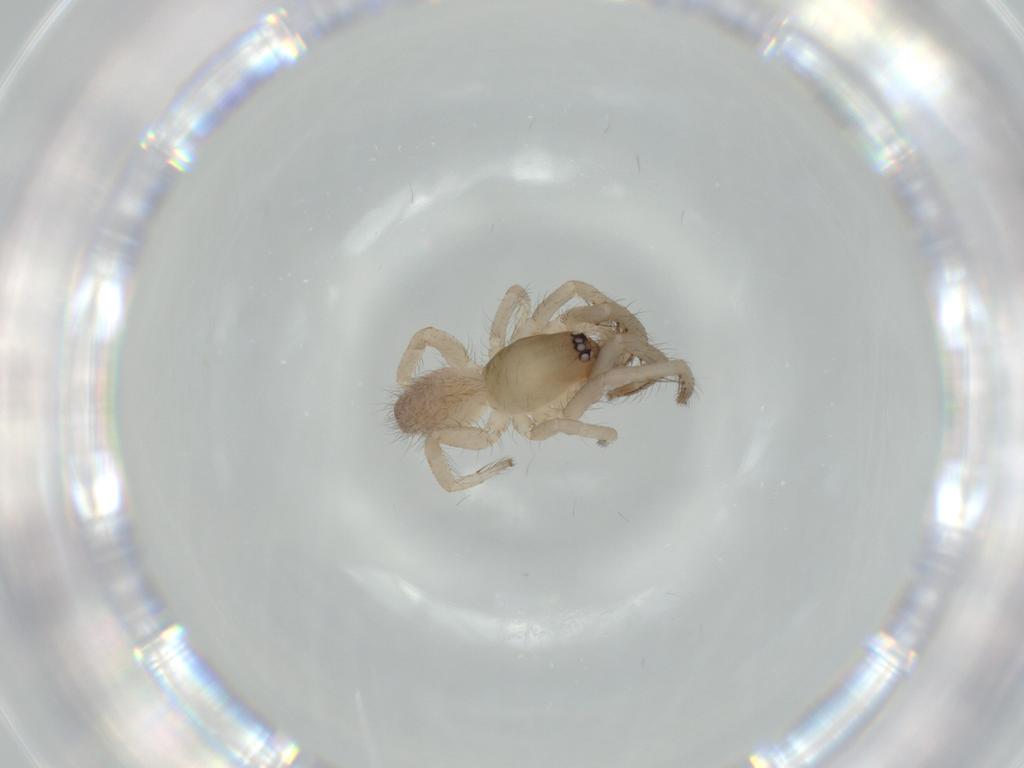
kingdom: Animalia
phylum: Arthropoda
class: Arachnida
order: Araneae
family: Segestriidae
